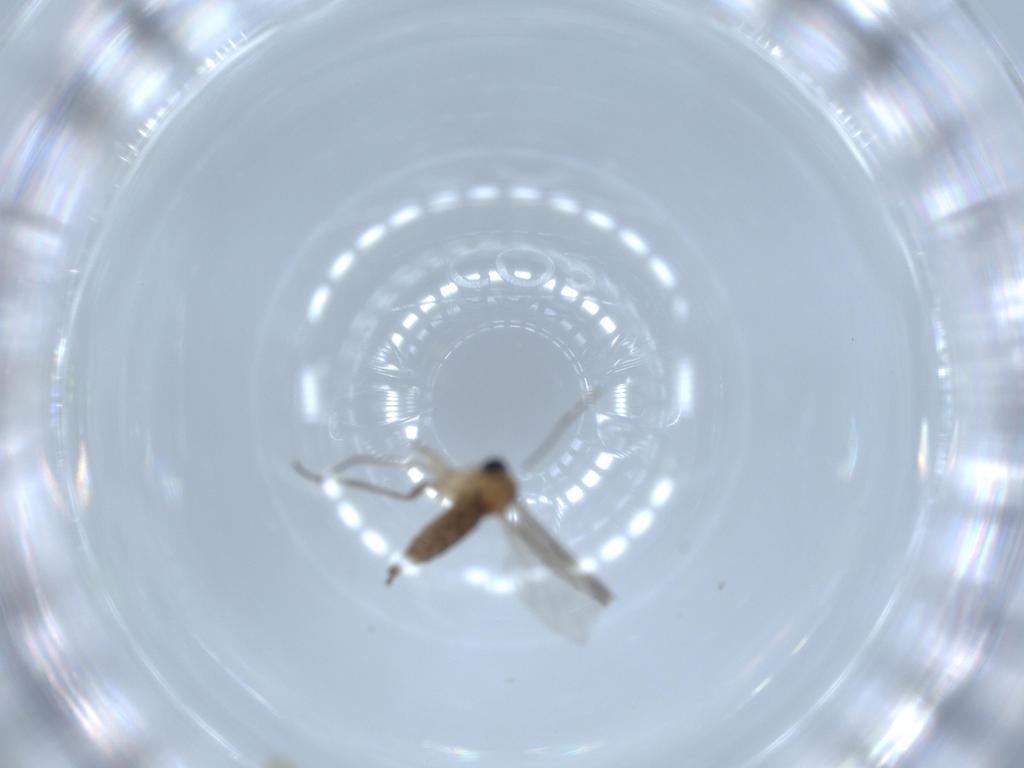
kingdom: Animalia
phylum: Arthropoda
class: Insecta
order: Diptera
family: Sciaridae
